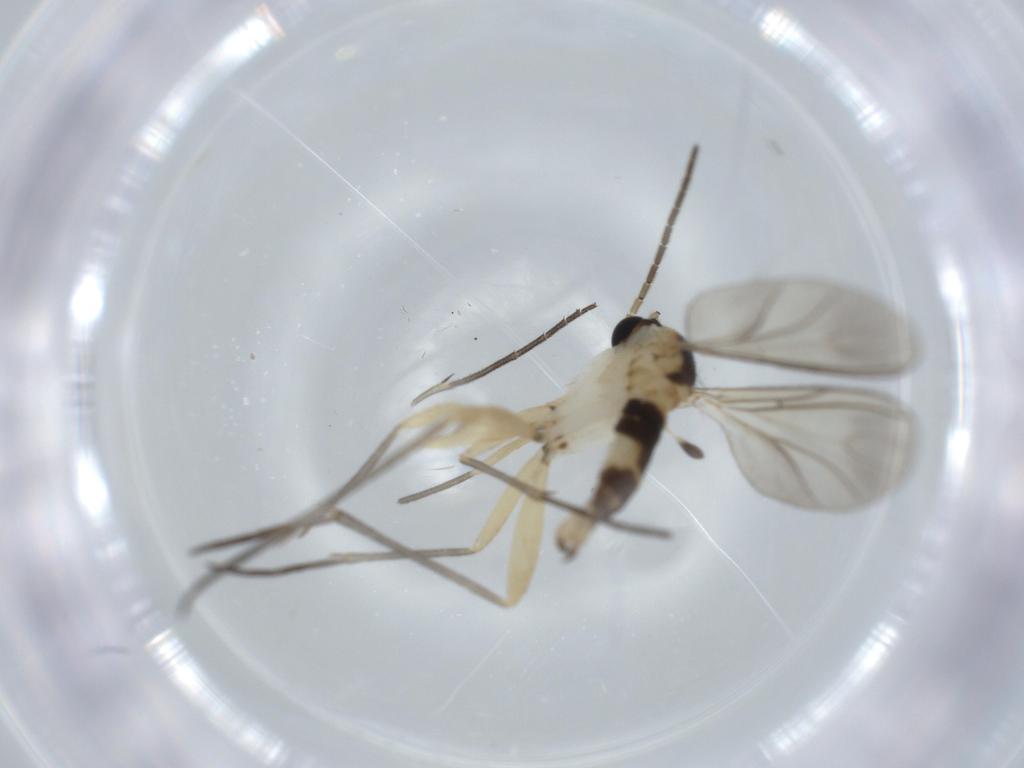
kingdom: Animalia
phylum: Arthropoda
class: Insecta
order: Diptera
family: Sciaridae
